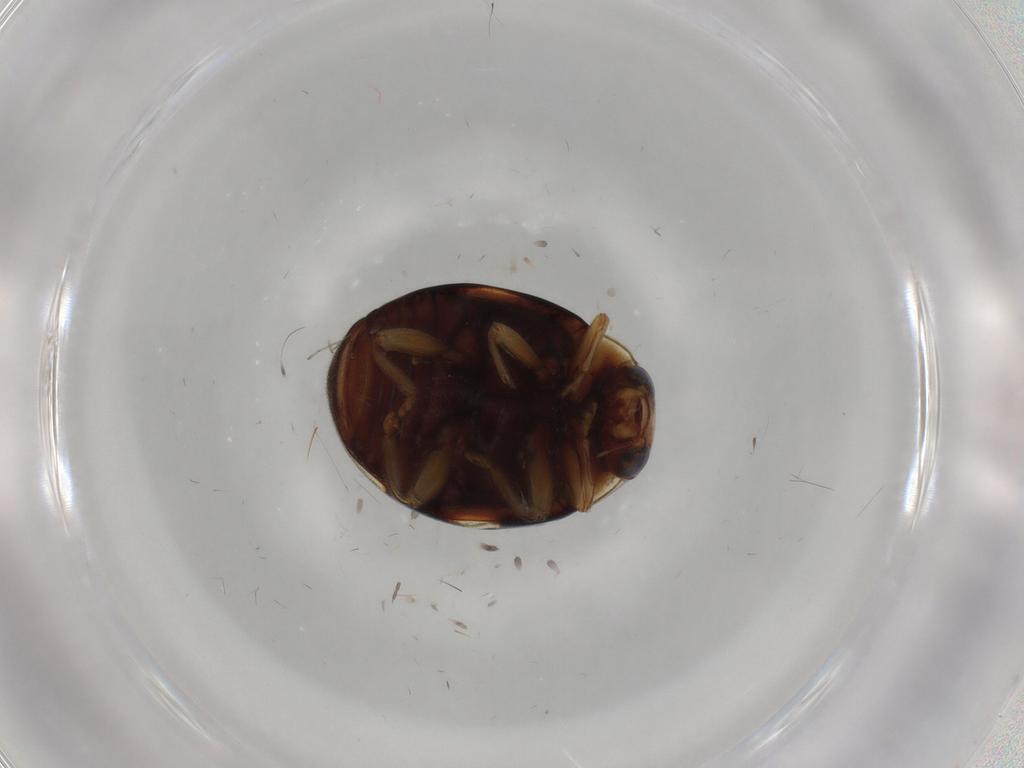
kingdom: Animalia
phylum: Arthropoda
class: Insecta
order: Coleoptera
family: Coccinellidae
